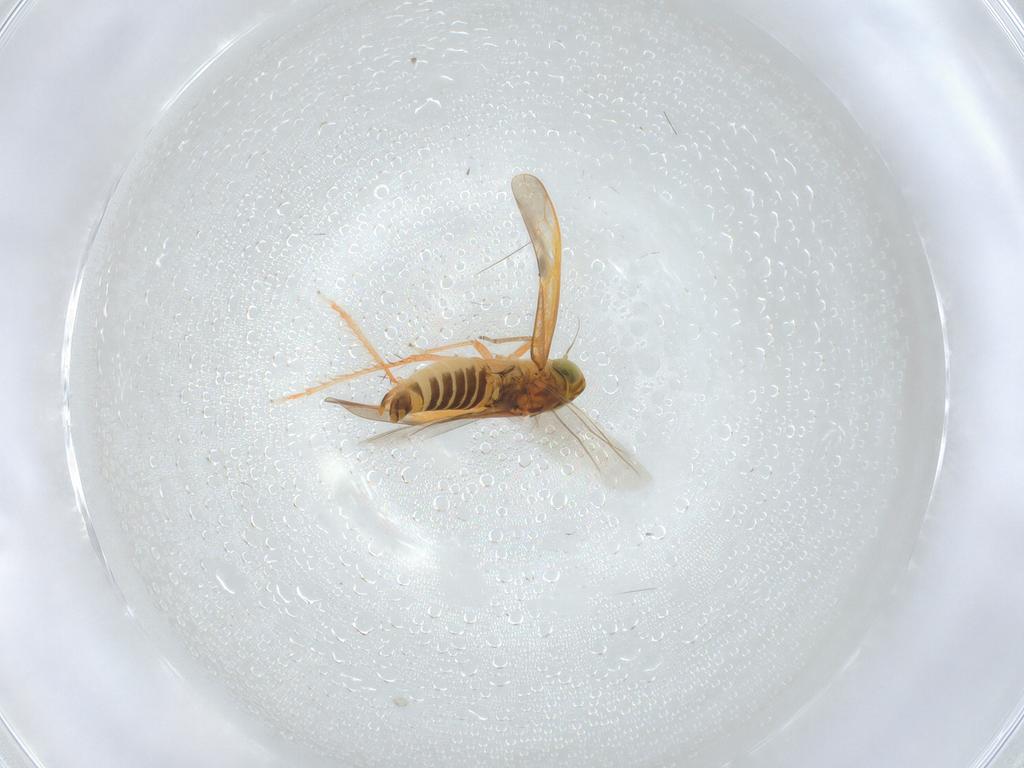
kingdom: Animalia
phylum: Arthropoda
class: Insecta
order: Hemiptera
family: Cicadellidae
